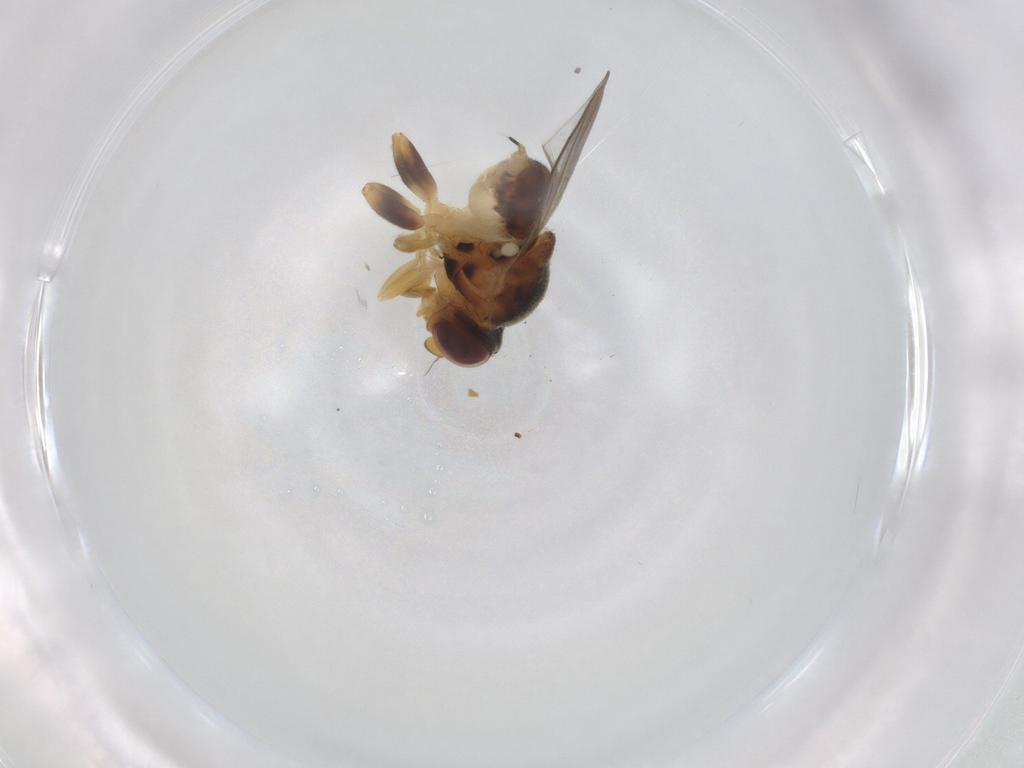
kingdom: Animalia
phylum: Arthropoda
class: Insecta
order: Diptera
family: Chloropidae
